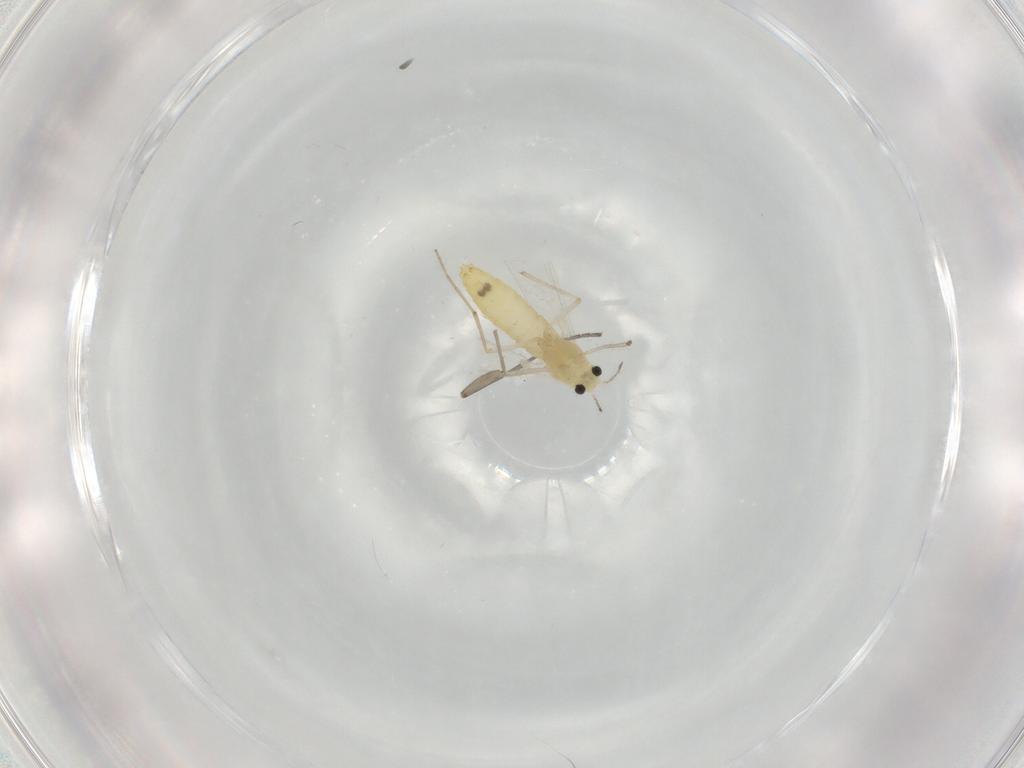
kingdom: Animalia
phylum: Arthropoda
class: Insecta
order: Diptera
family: Chironomidae
